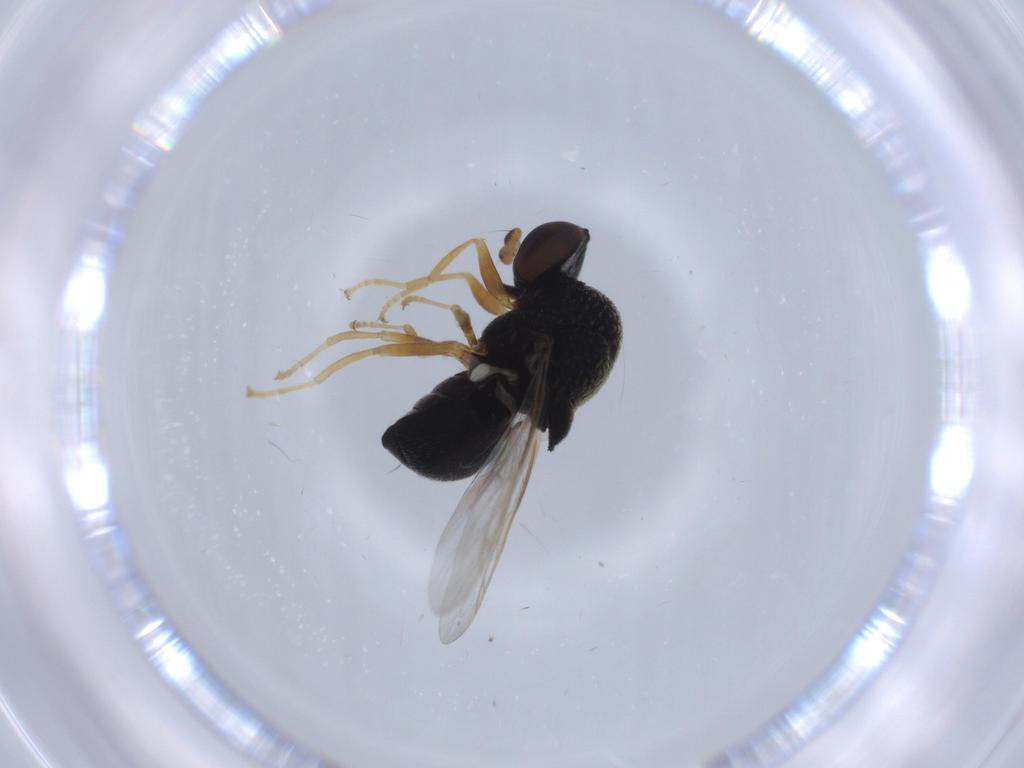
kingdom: Animalia
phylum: Arthropoda
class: Insecta
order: Diptera
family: Stratiomyidae
